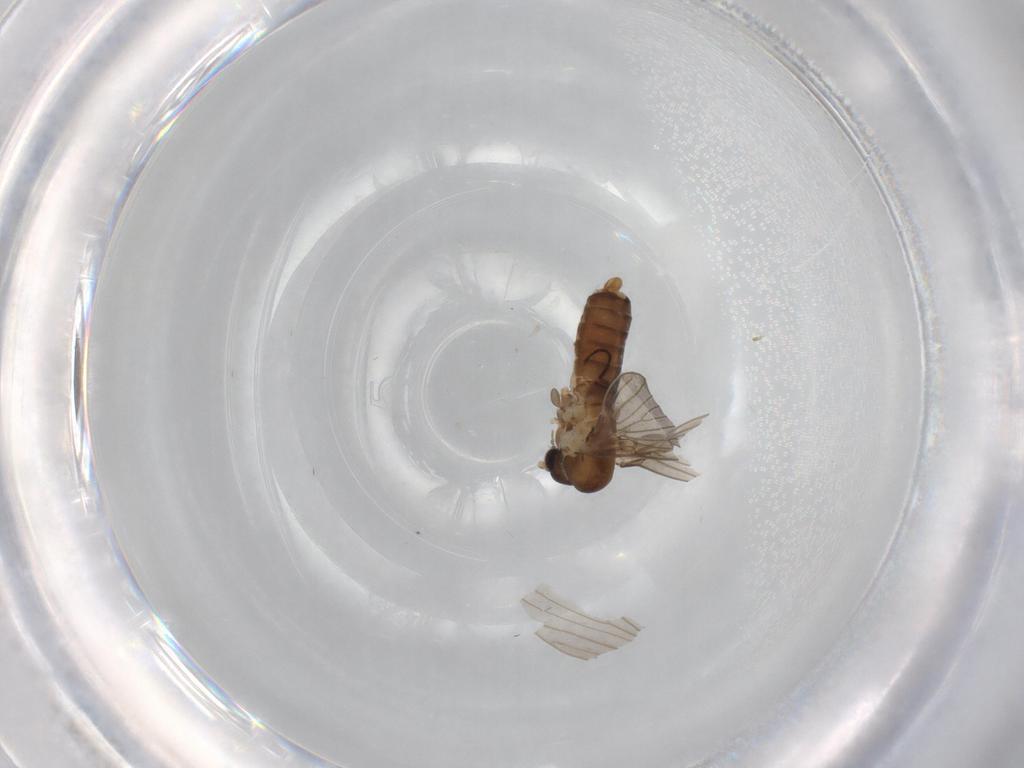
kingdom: Animalia
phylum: Arthropoda
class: Insecta
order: Diptera
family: Psychodidae
